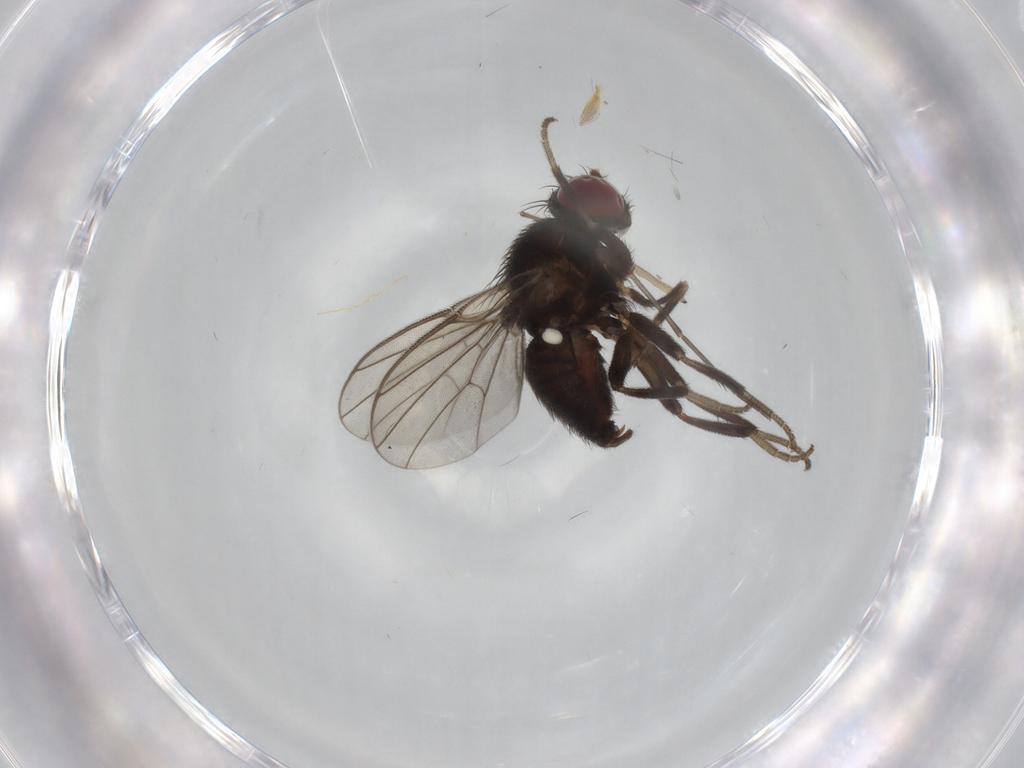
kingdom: Animalia
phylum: Arthropoda
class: Insecta
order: Diptera
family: Agromyzidae
